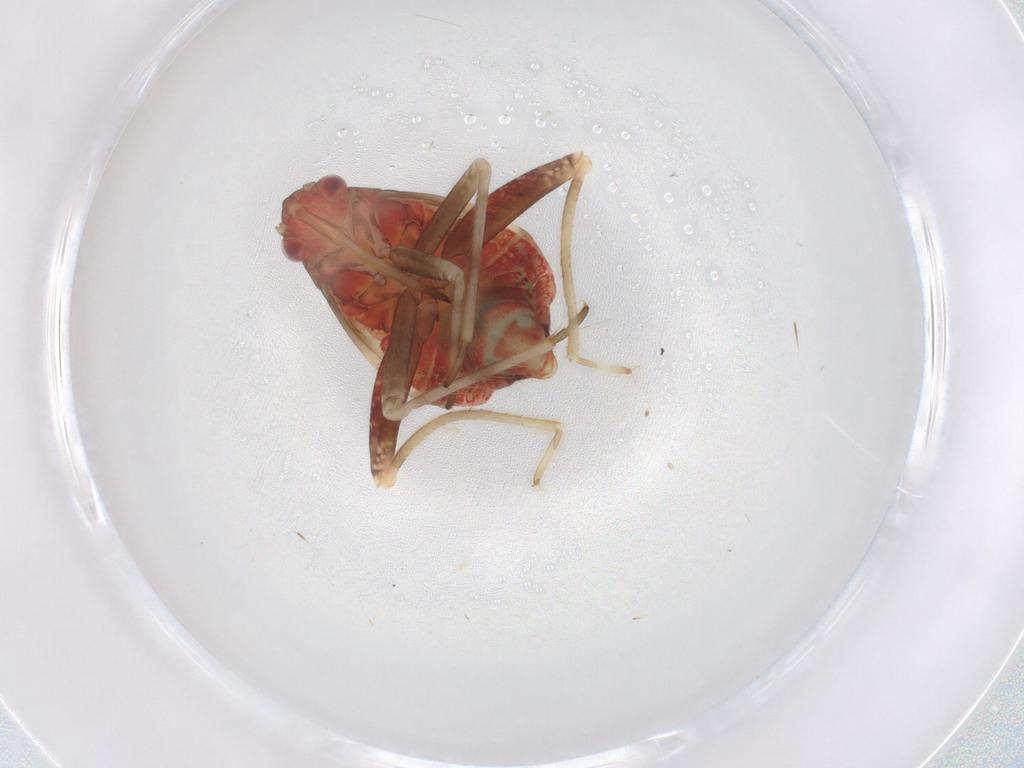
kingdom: Animalia
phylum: Arthropoda
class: Insecta
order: Hemiptera
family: Miridae
